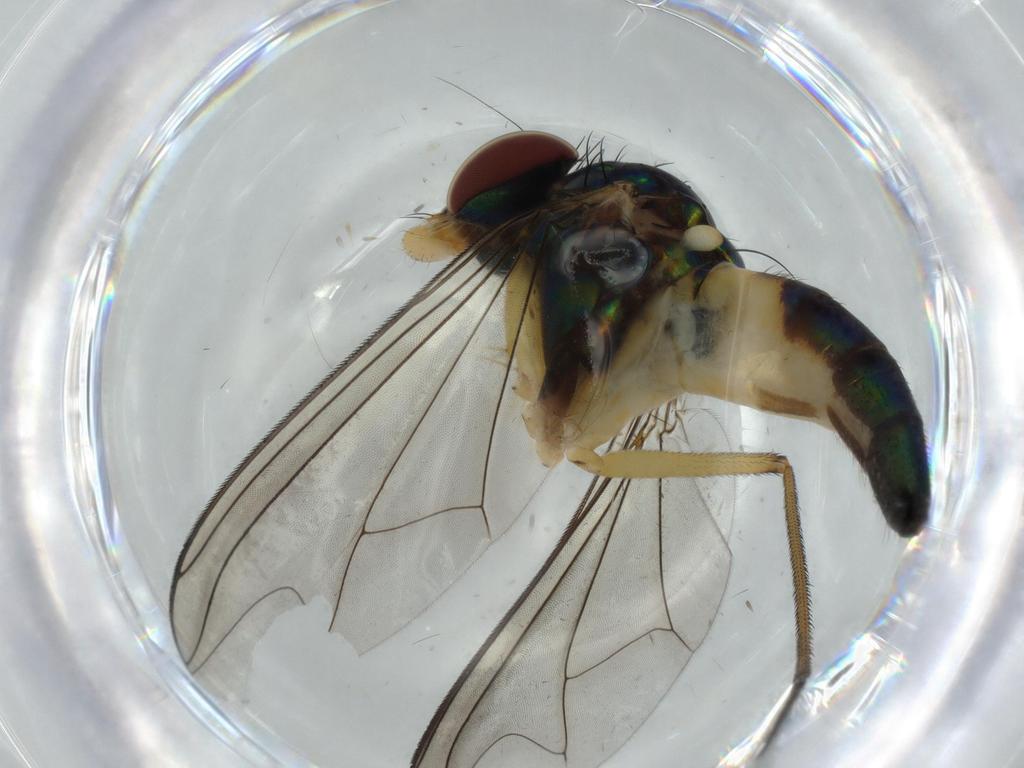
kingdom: Animalia
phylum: Arthropoda
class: Insecta
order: Diptera
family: Dolichopodidae
